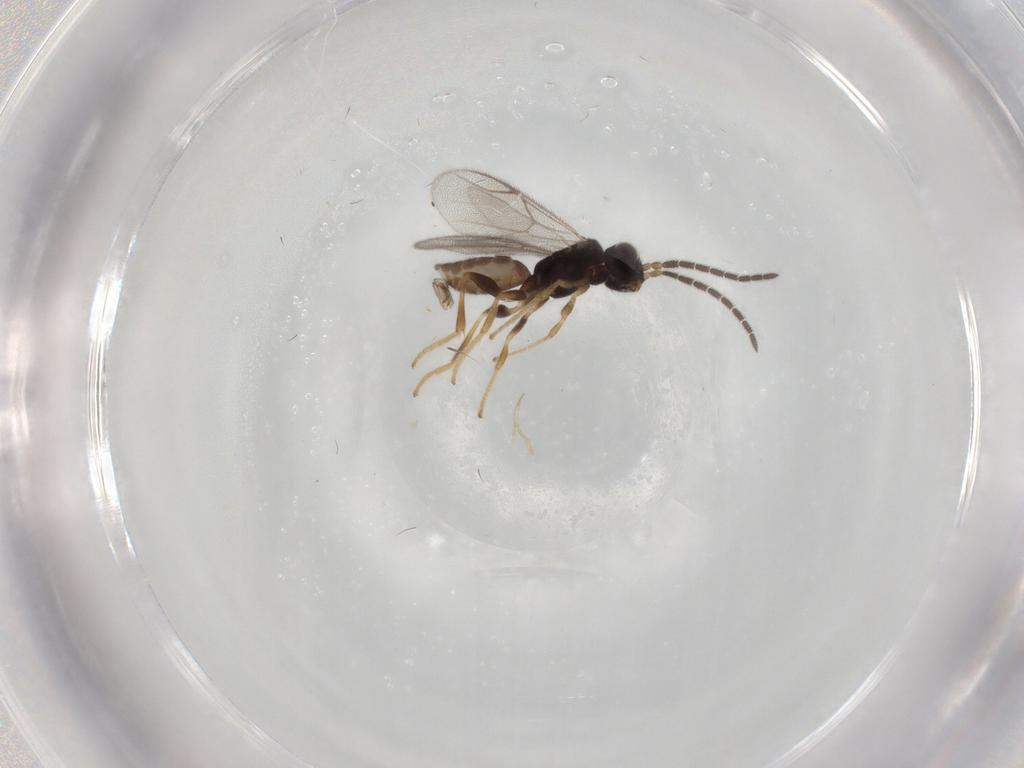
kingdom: Animalia
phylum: Arthropoda
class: Insecta
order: Hymenoptera
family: Dryinidae
